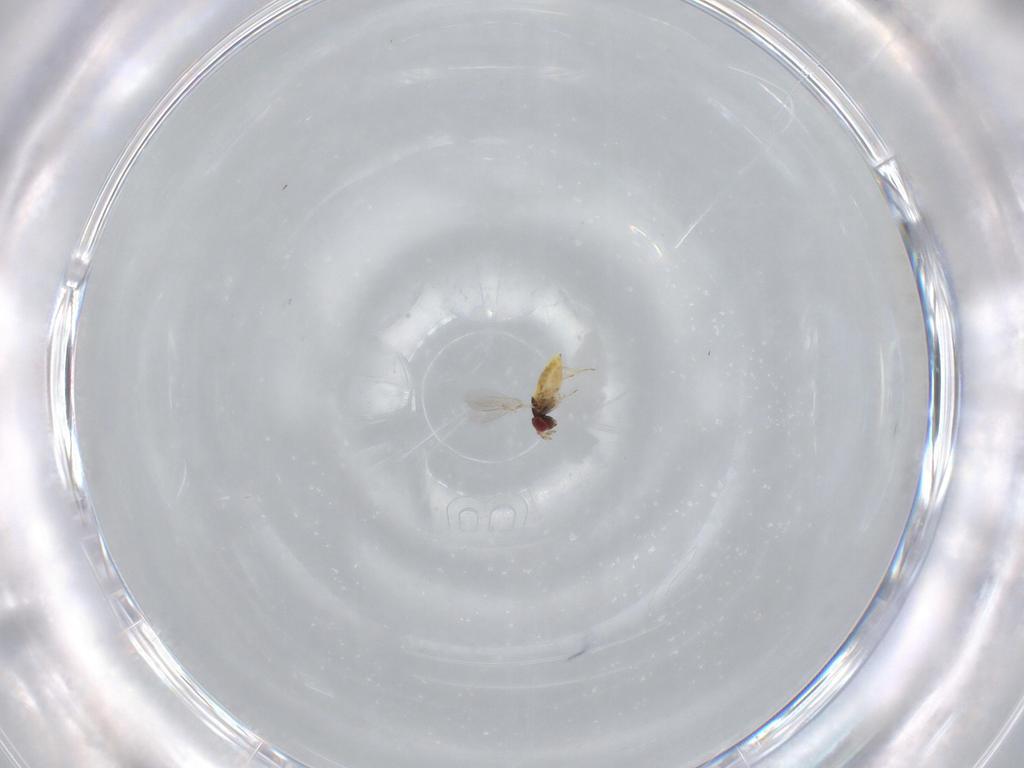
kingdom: Animalia
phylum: Arthropoda
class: Insecta
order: Hymenoptera
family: Trichogrammatidae
